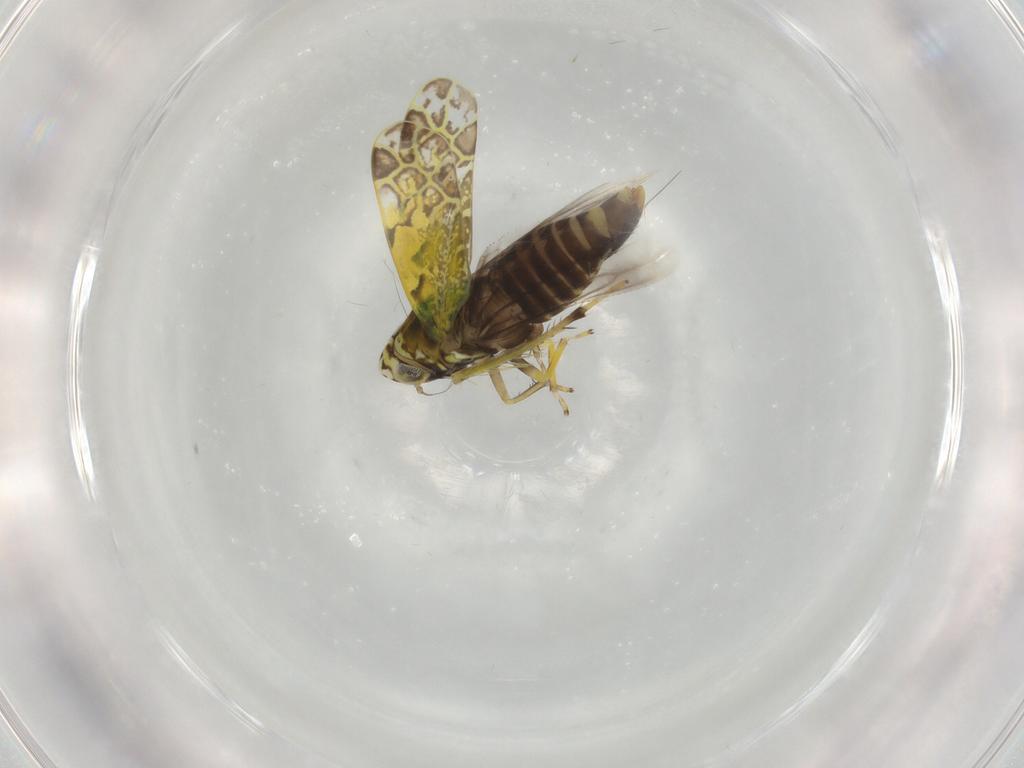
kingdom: Animalia
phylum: Arthropoda
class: Insecta
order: Hemiptera
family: Cicadellidae
